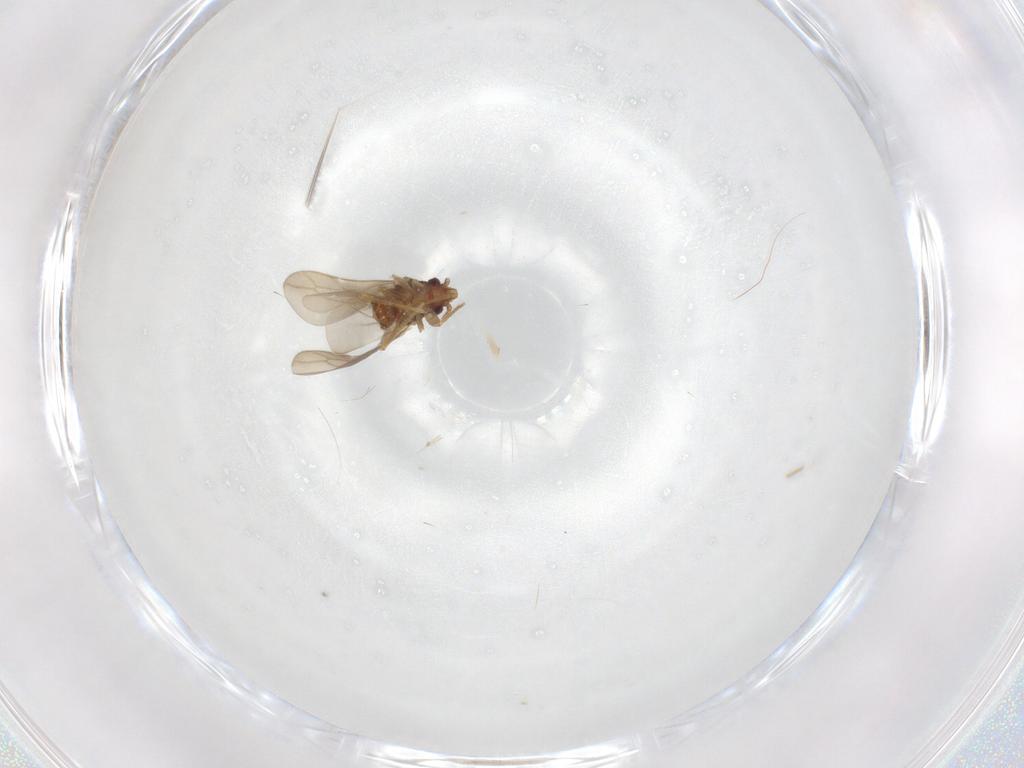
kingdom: Animalia
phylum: Arthropoda
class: Insecta
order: Hemiptera
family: Ceratocombidae
